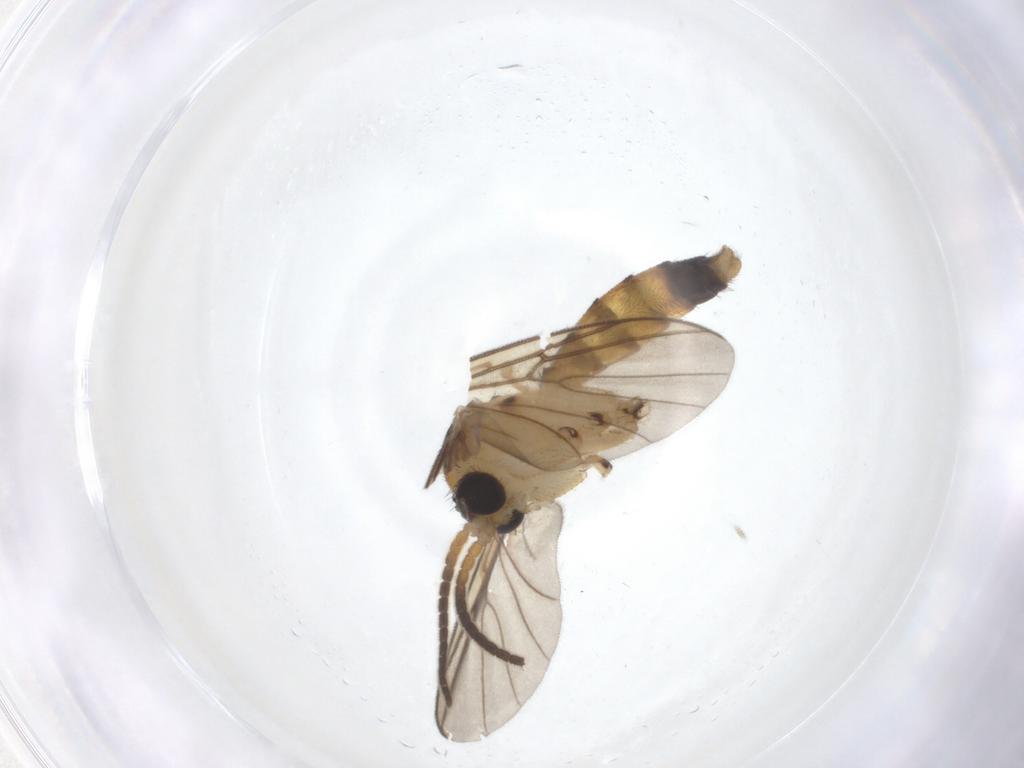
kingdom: Animalia
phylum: Arthropoda
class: Insecta
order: Diptera
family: Mycetophilidae
